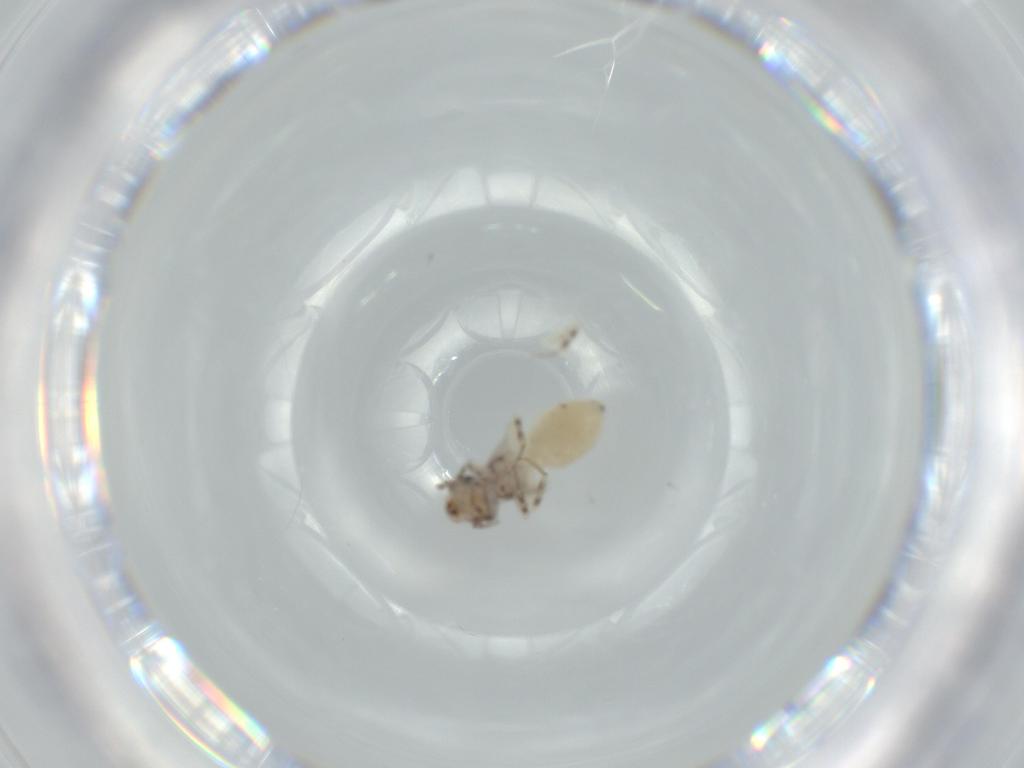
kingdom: Animalia
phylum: Arthropoda
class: Insecta
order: Psocodea
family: Lepidopsocidae
